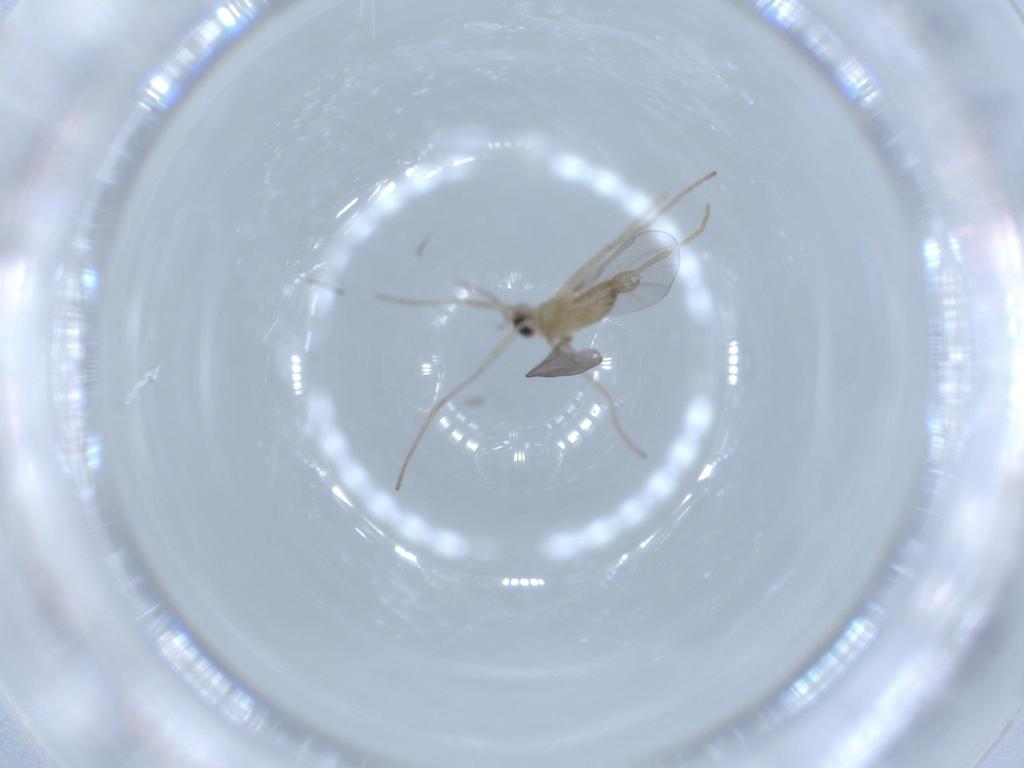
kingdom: Animalia
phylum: Arthropoda
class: Insecta
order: Diptera
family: Cecidomyiidae
